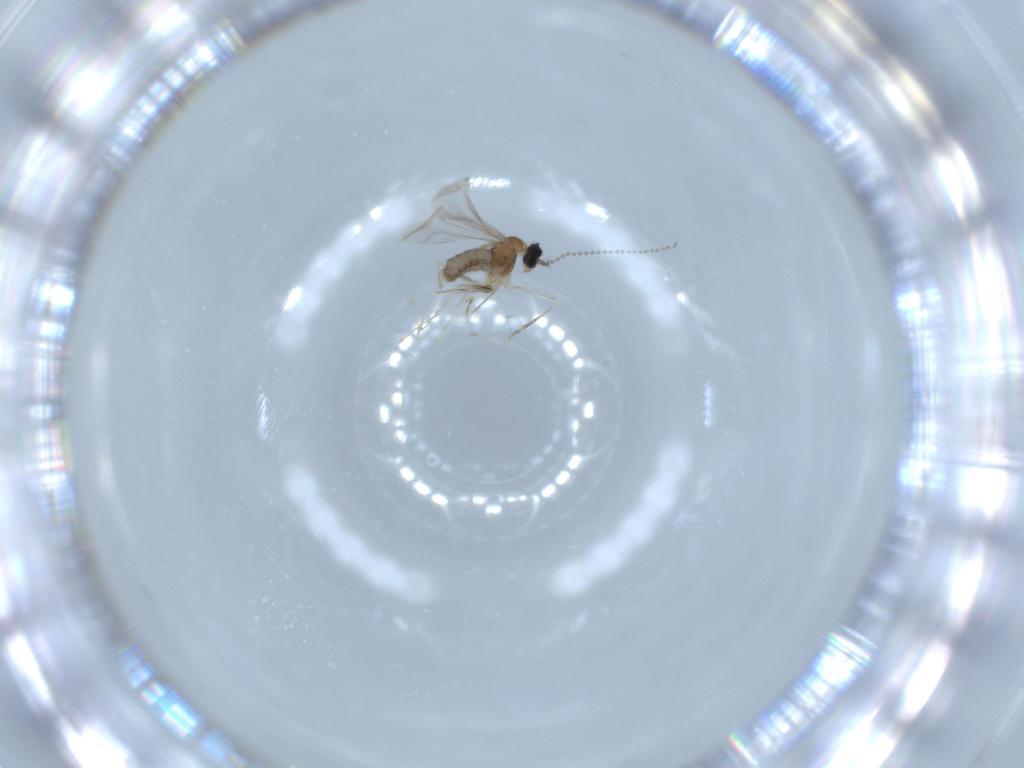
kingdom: Animalia
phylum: Arthropoda
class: Insecta
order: Diptera
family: Cecidomyiidae
